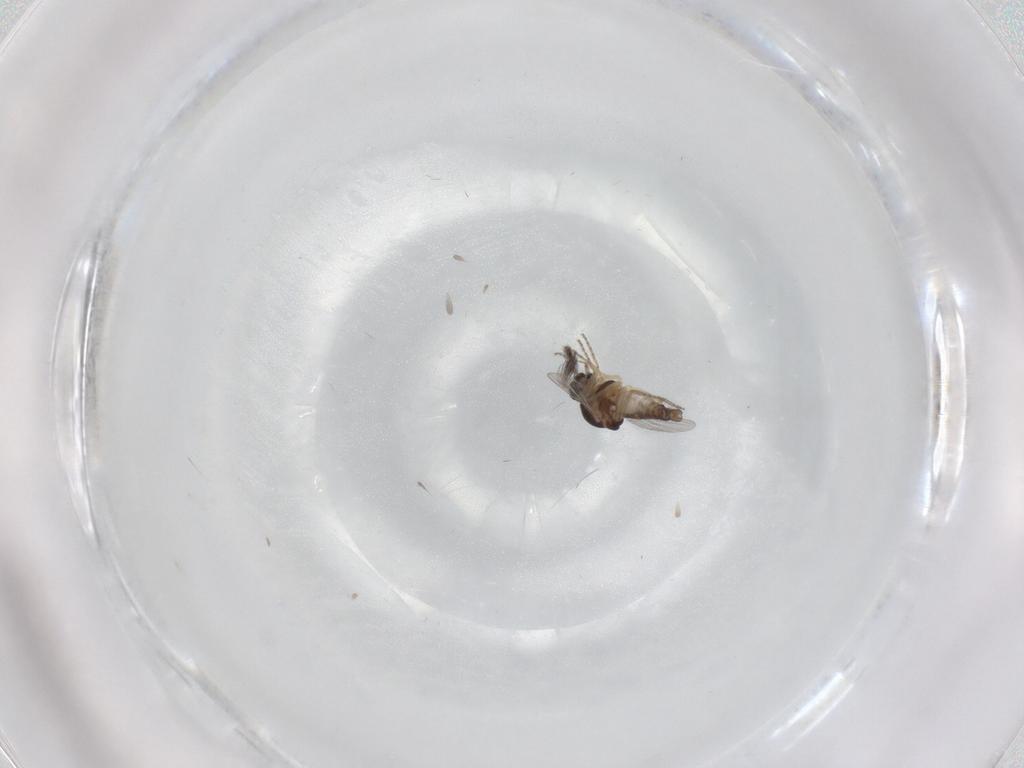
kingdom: Animalia
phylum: Arthropoda
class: Insecta
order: Diptera
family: Ceratopogonidae
